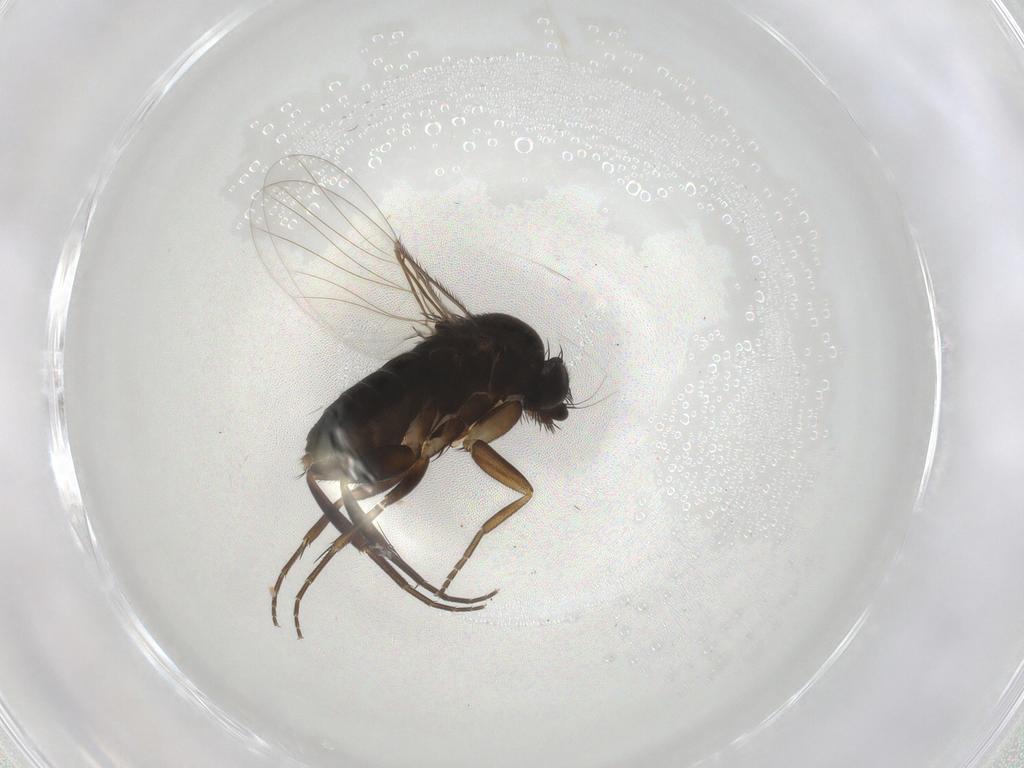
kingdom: Animalia
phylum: Arthropoda
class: Insecta
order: Diptera
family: Phoridae
